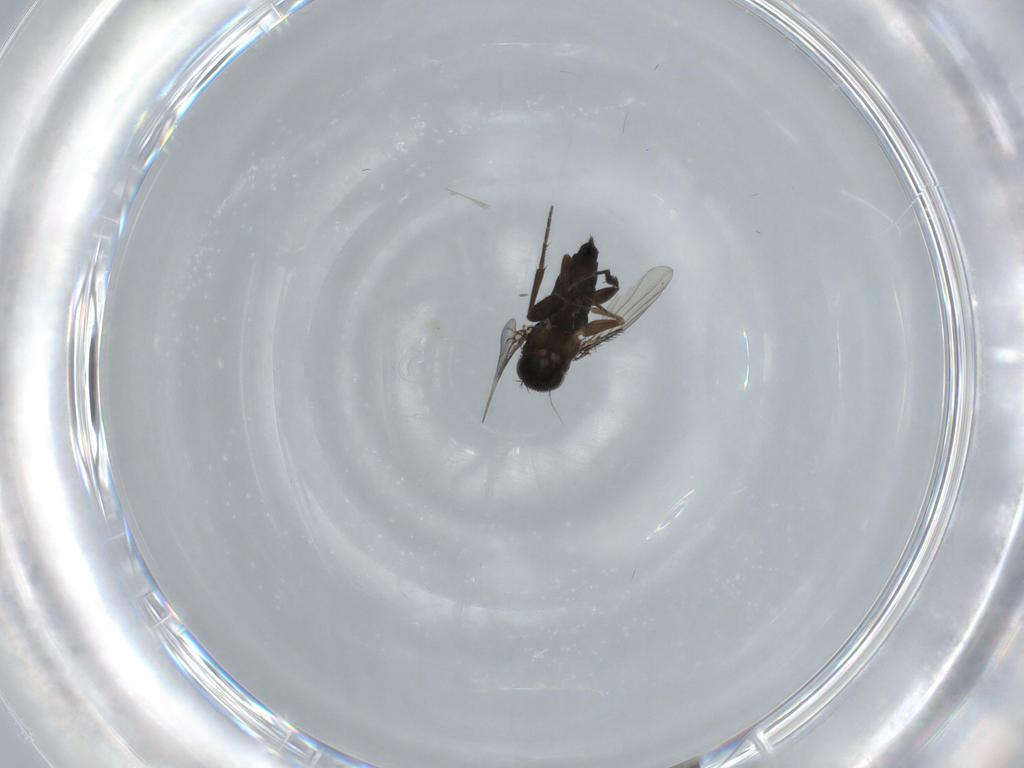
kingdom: Animalia
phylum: Arthropoda
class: Insecta
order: Diptera
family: Phoridae
